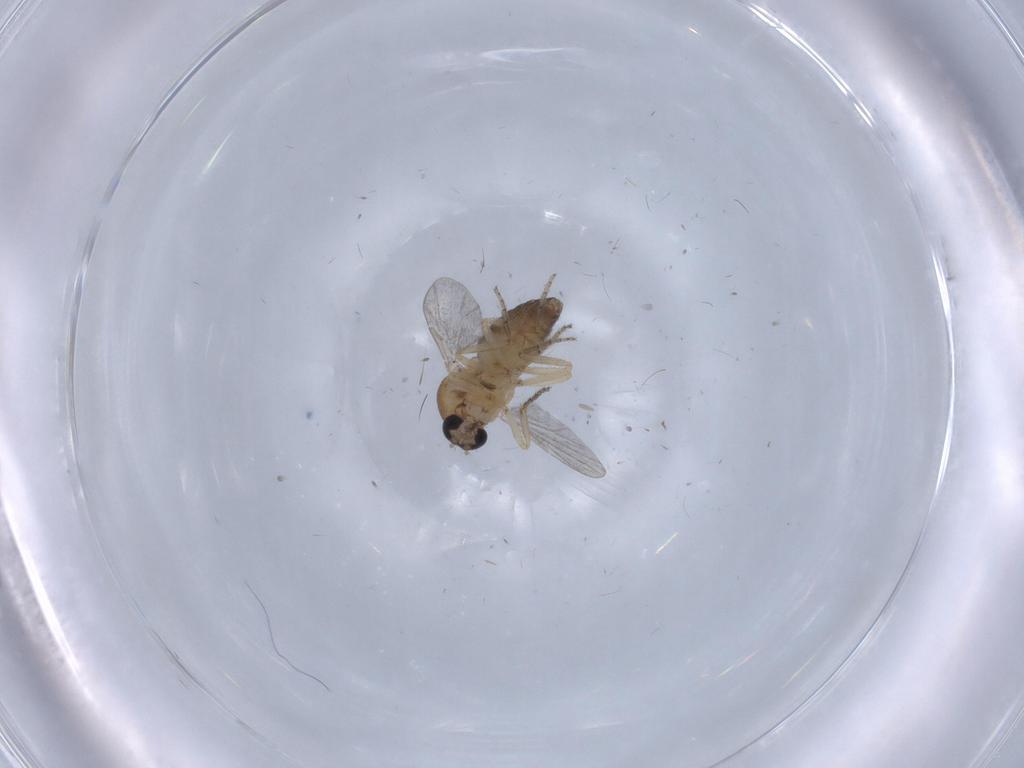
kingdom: Animalia
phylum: Arthropoda
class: Insecta
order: Diptera
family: Ceratopogonidae
